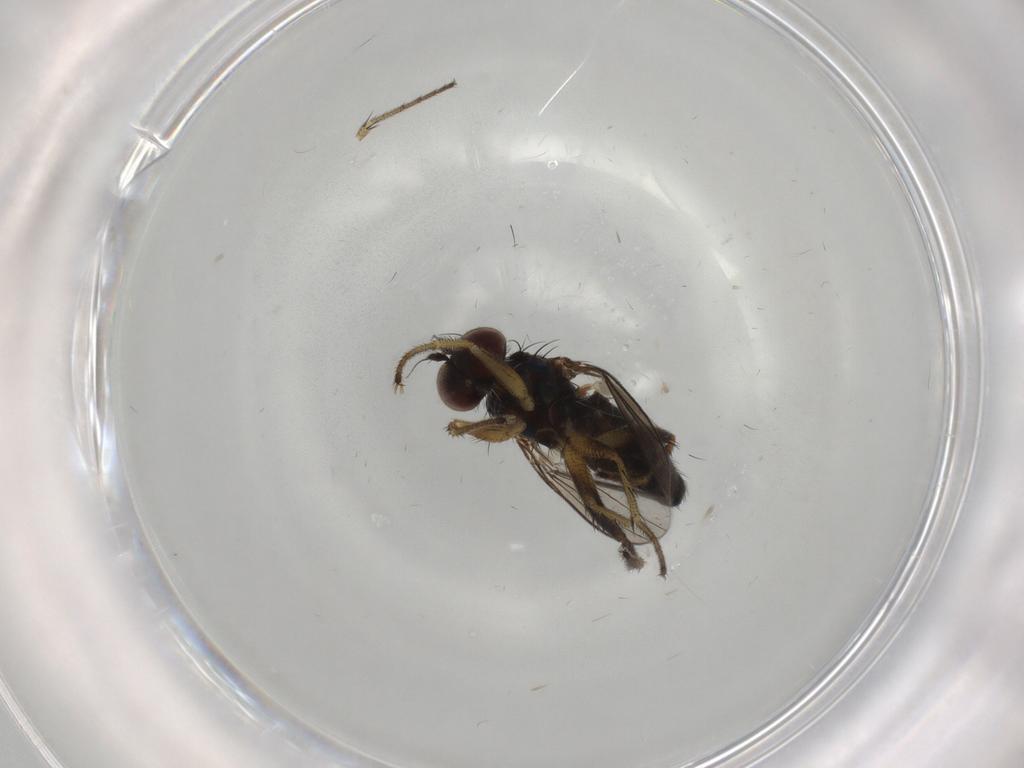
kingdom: Animalia
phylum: Arthropoda
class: Insecta
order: Diptera
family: Dolichopodidae
